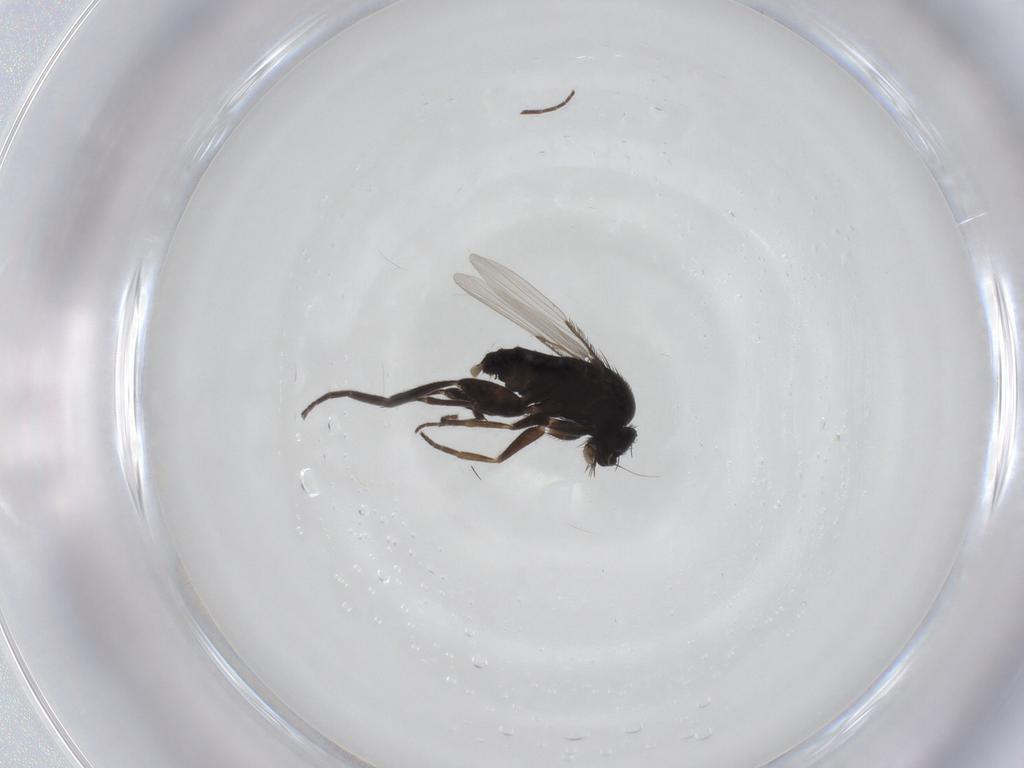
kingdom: Animalia
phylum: Arthropoda
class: Insecta
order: Diptera
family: Phoridae
